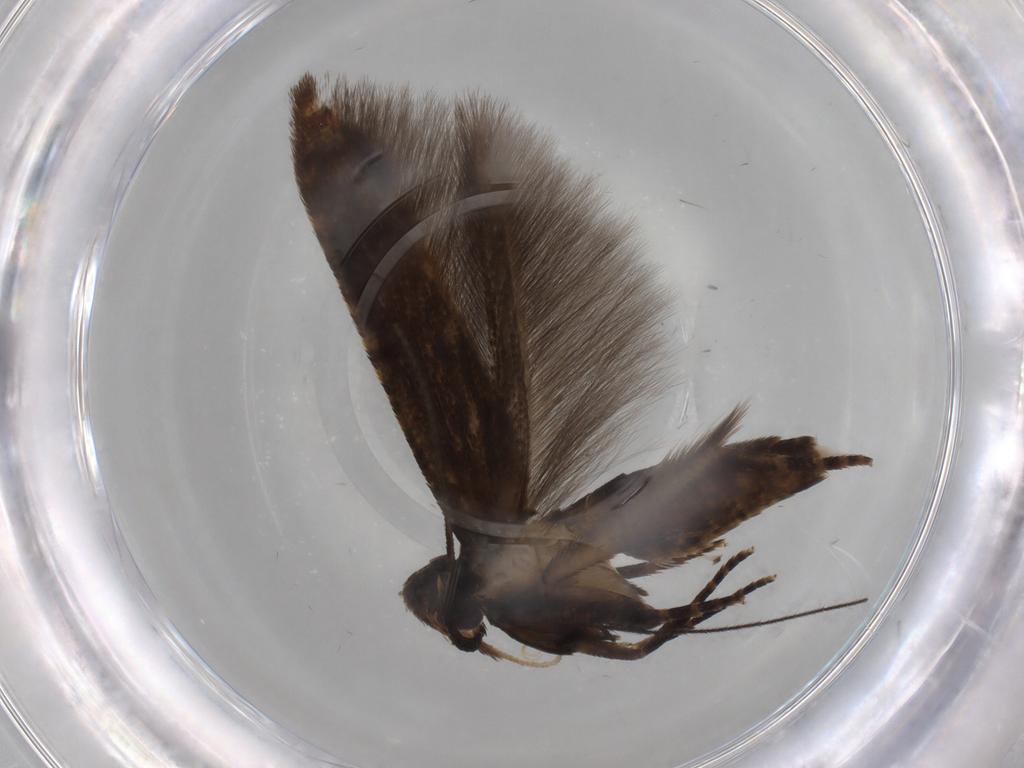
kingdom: Animalia
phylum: Arthropoda
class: Insecta
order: Lepidoptera
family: Depressariidae
